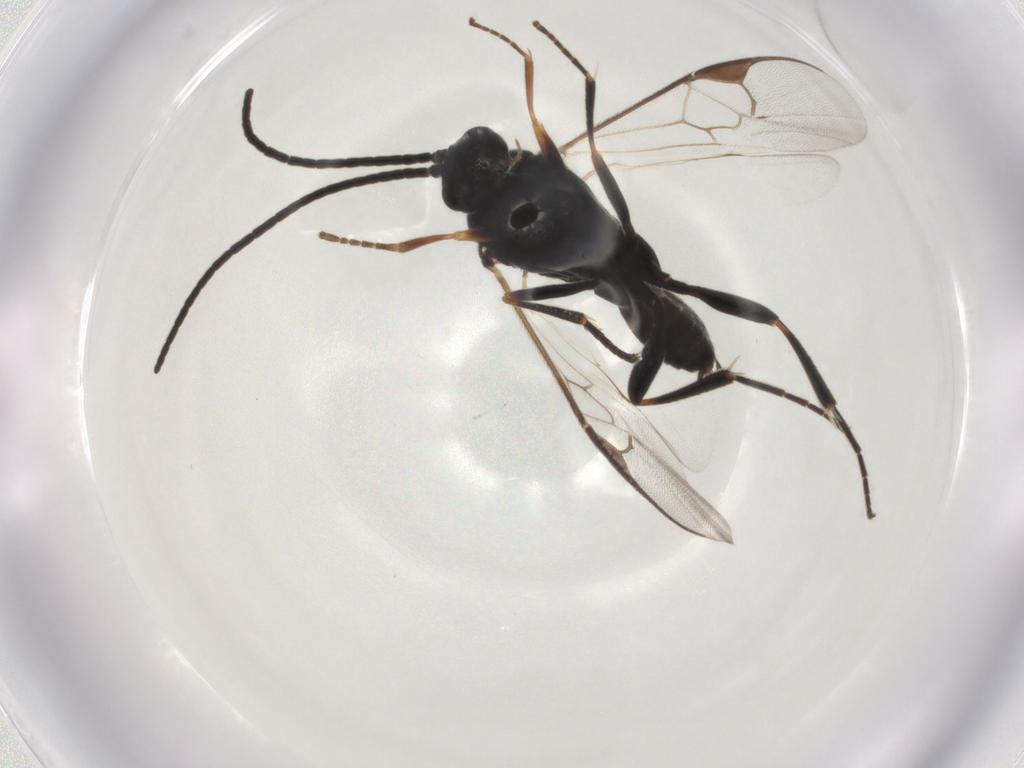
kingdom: Animalia
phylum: Arthropoda
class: Insecta
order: Hymenoptera
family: Braconidae
